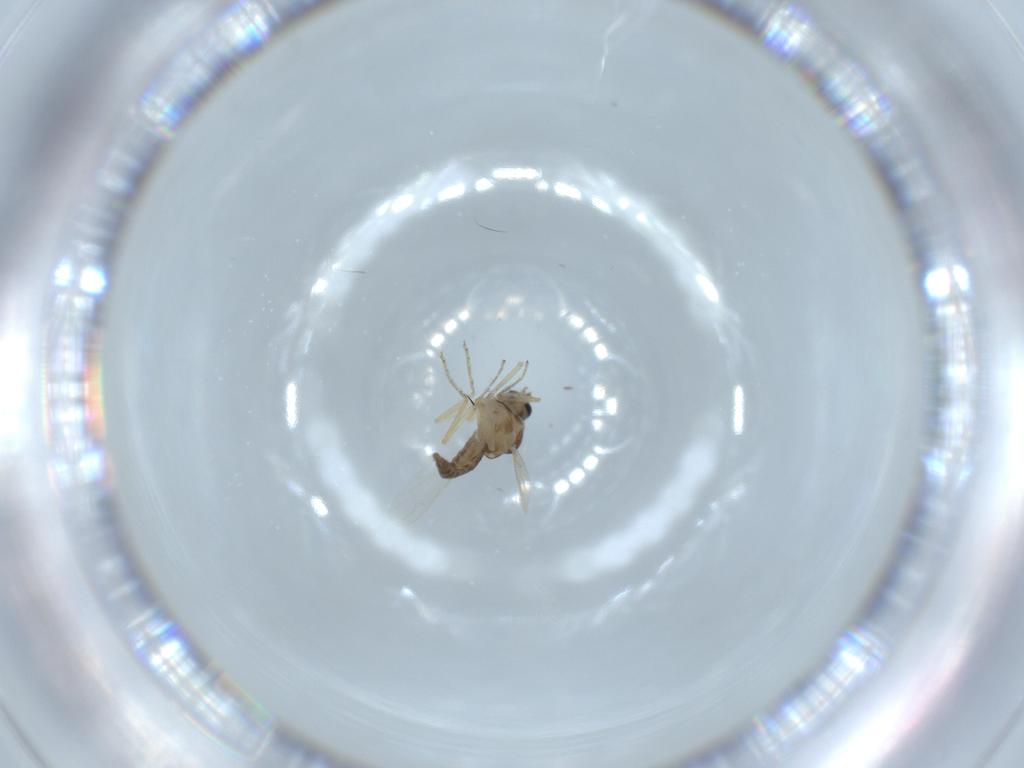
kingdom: Animalia
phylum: Arthropoda
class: Insecta
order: Diptera
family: Ceratopogonidae
